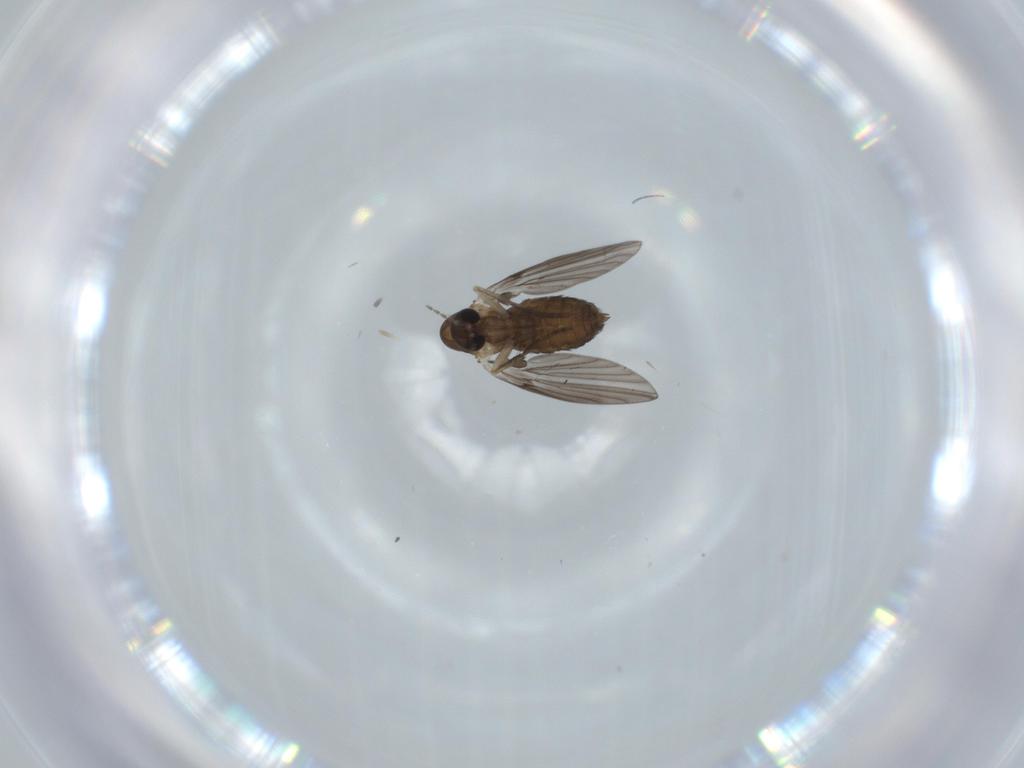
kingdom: Animalia
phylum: Arthropoda
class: Insecta
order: Diptera
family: Psychodidae
